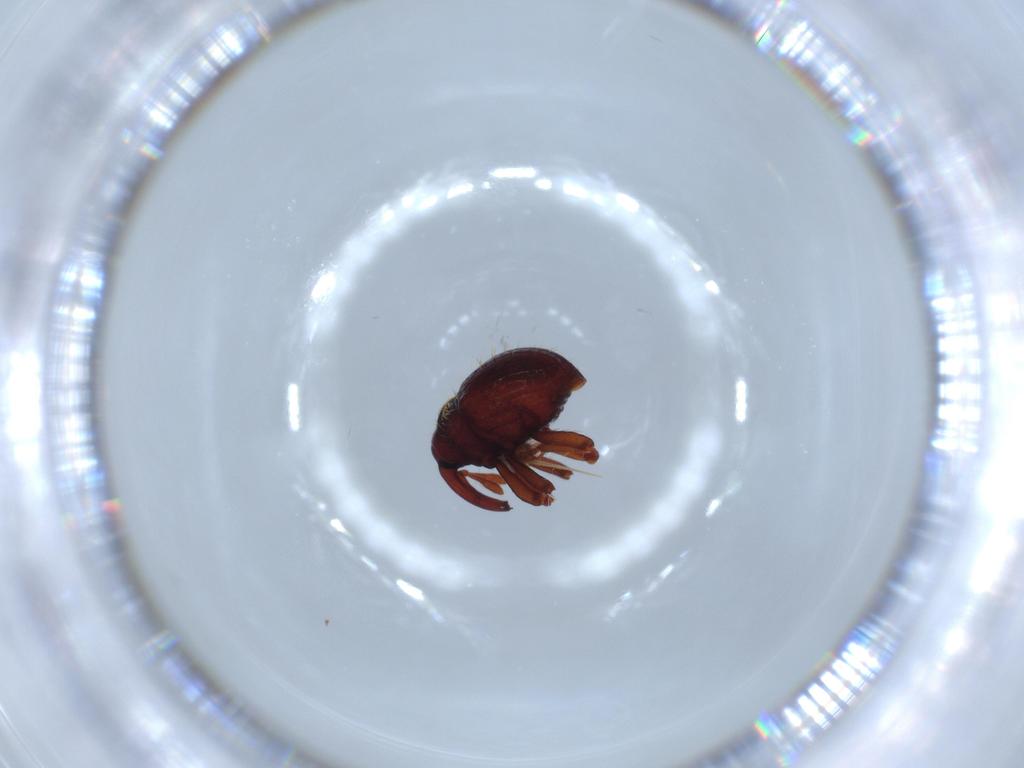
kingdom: Animalia
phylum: Arthropoda
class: Insecta
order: Coleoptera
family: Curculionidae
